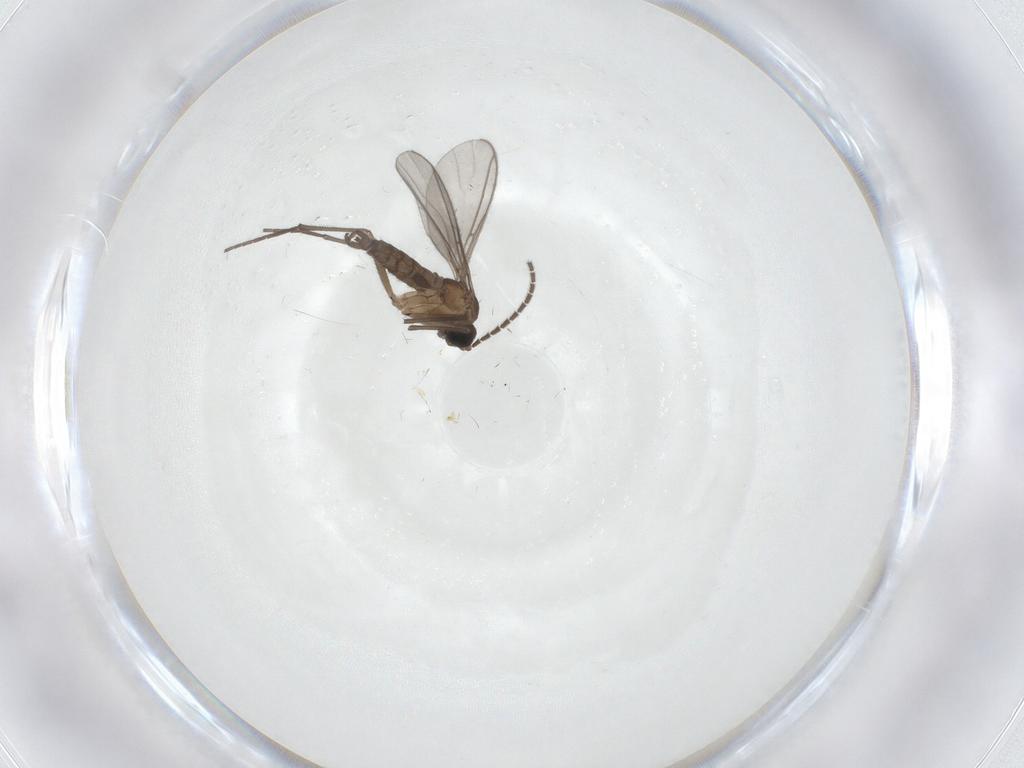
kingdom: Animalia
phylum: Arthropoda
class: Insecta
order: Diptera
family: Sciaridae
